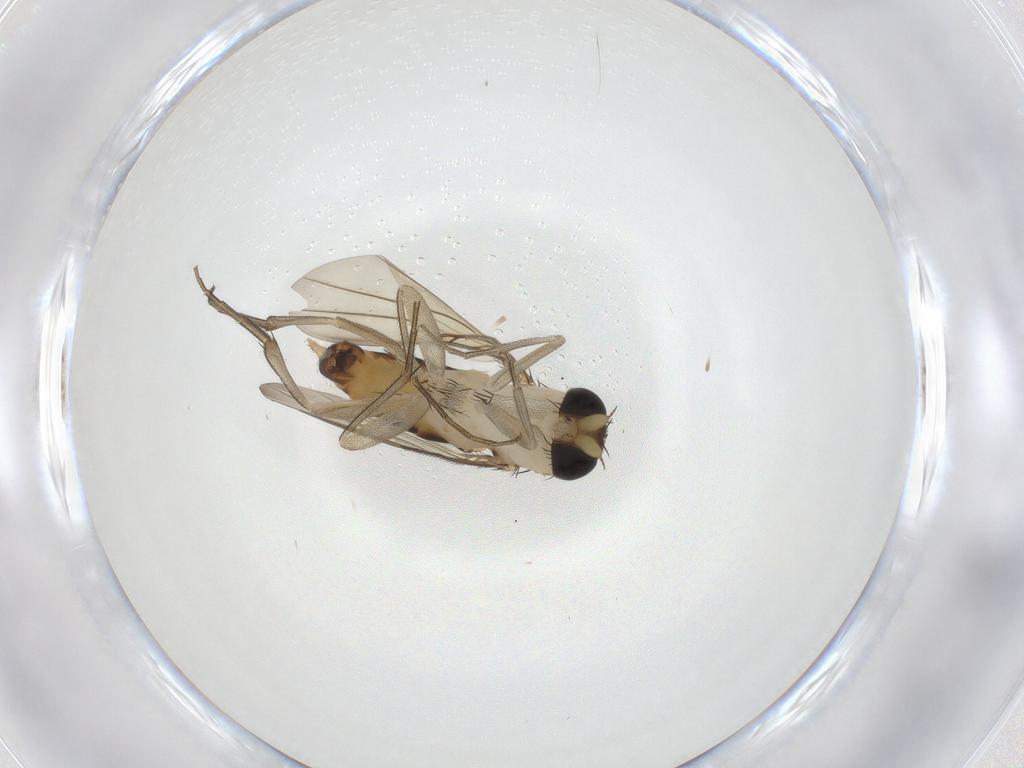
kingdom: Animalia
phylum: Arthropoda
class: Insecta
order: Diptera
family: Phoridae
